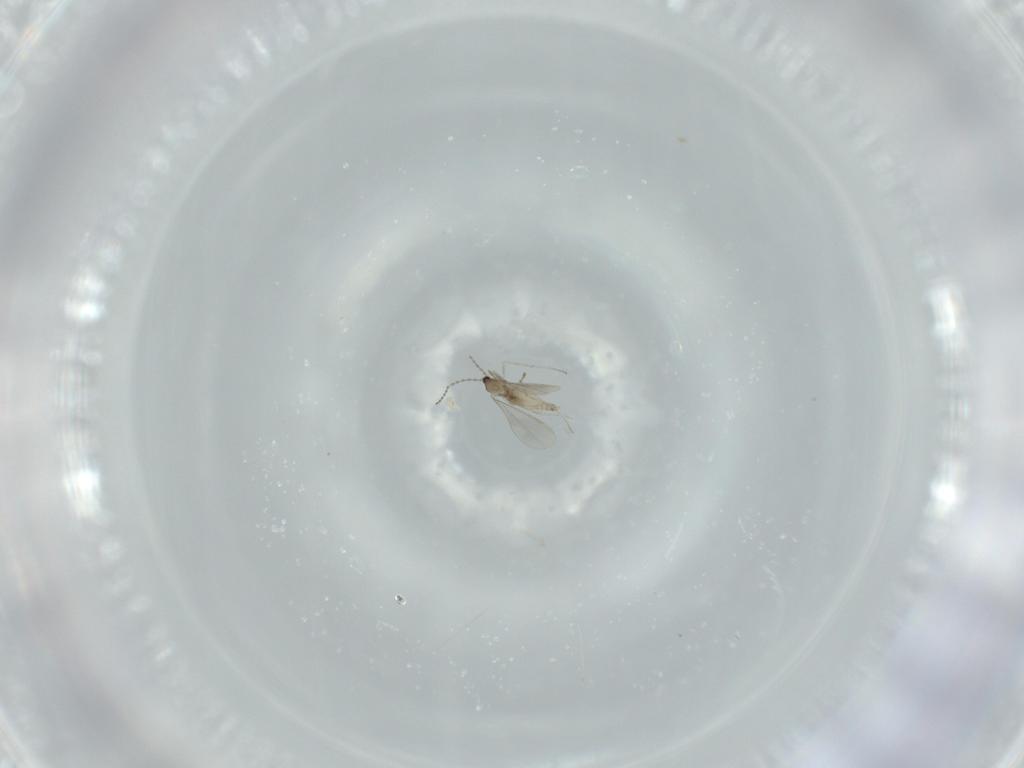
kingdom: Animalia
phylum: Arthropoda
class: Insecta
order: Diptera
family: Cecidomyiidae
